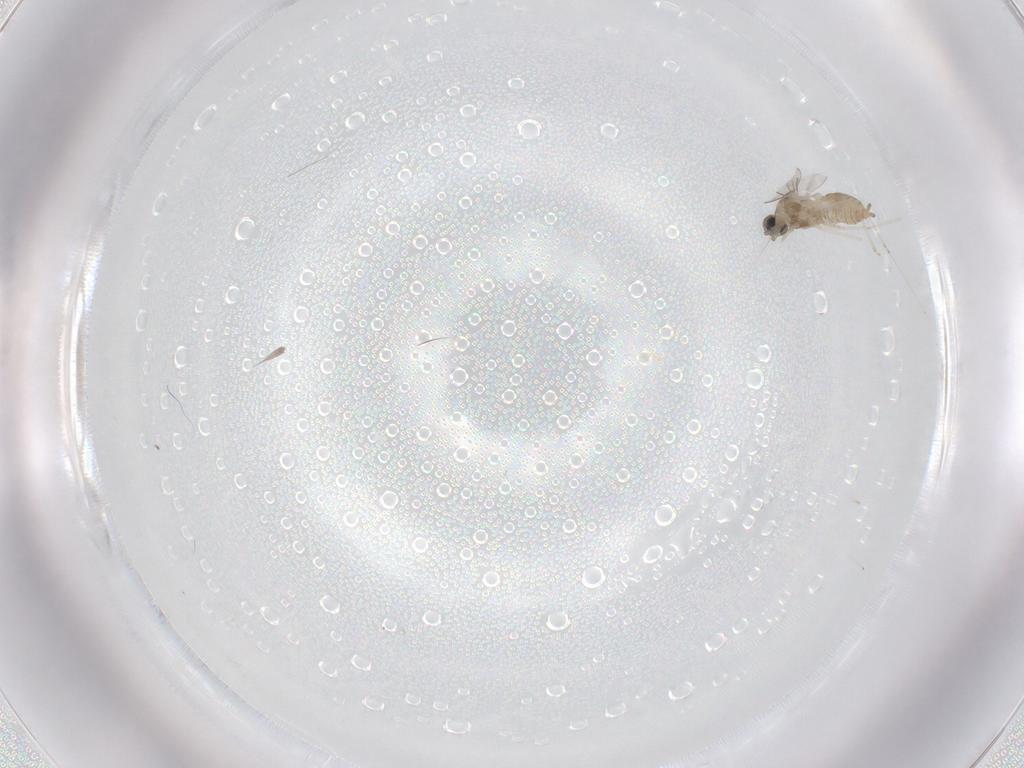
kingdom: Animalia
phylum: Arthropoda
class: Insecta
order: Diptera
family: Cecidomyiidae
